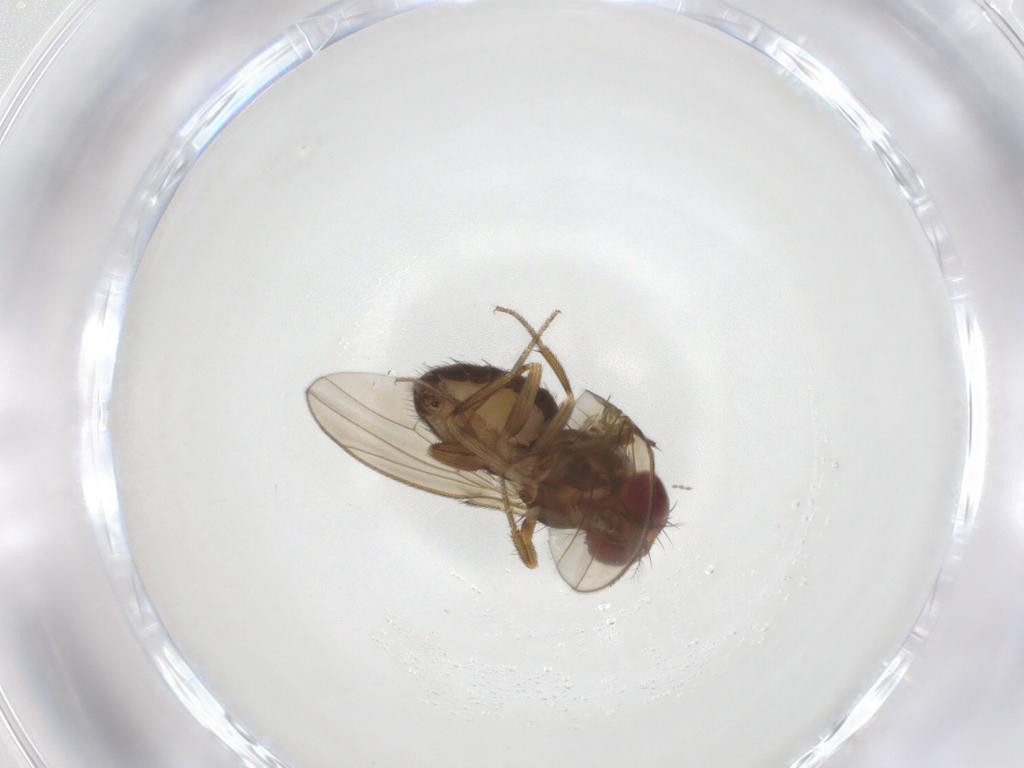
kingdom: Animalia
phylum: Arthropoda
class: Insecta
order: Diptera
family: Drosophilidae
